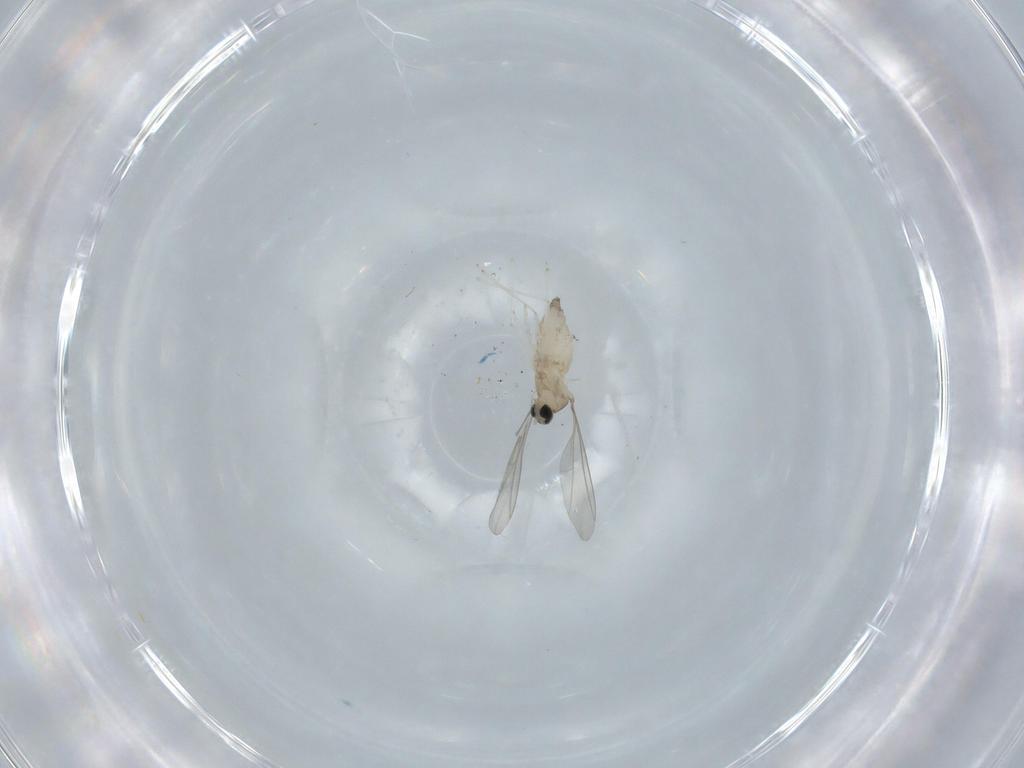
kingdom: Animalia
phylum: Arthropoda
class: Insecta
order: Diptera
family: Cecidomyiidae
